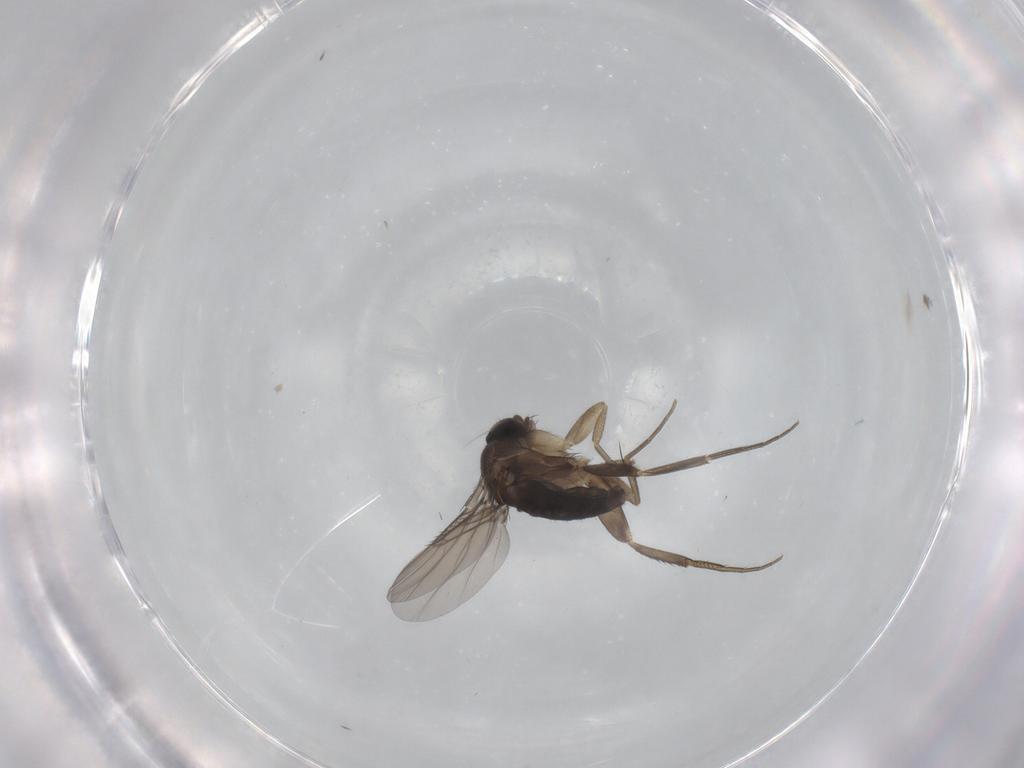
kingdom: Animalia
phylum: Arthropoda
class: Insecta
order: Diptera
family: Phoridae
